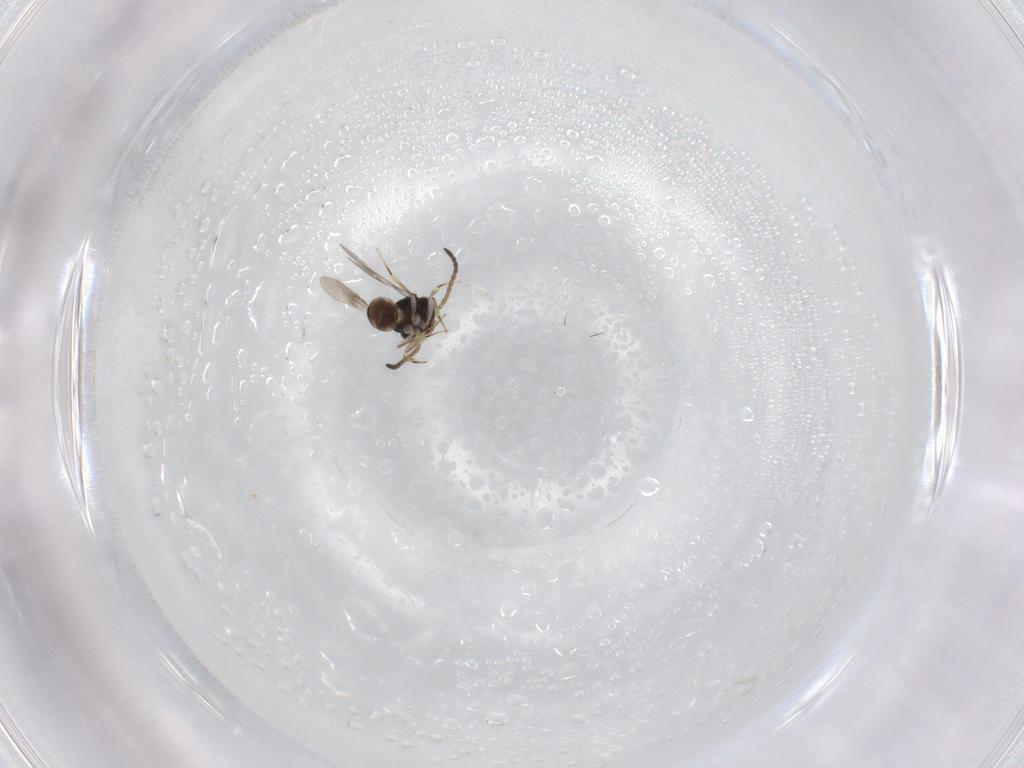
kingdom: Animalia
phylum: Arthropoda
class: Insecta
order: Hymenoptera
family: Scelionidae
